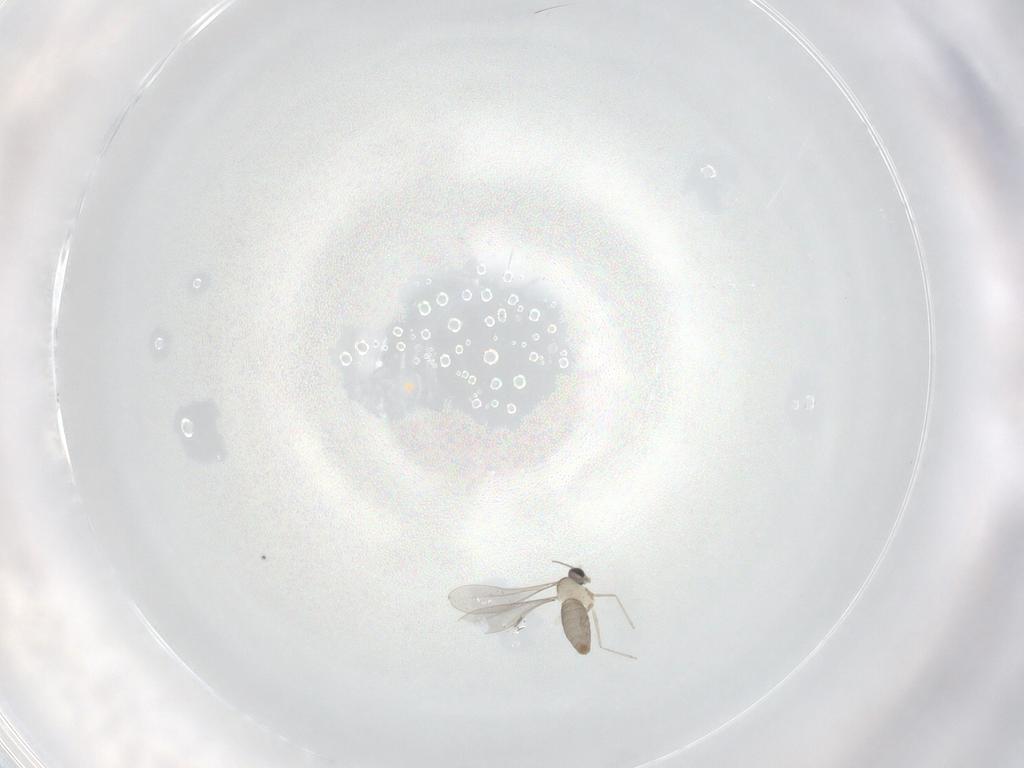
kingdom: Animalia
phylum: Arthropoda
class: Insecta
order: Diptera
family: Cecidomyiidae
